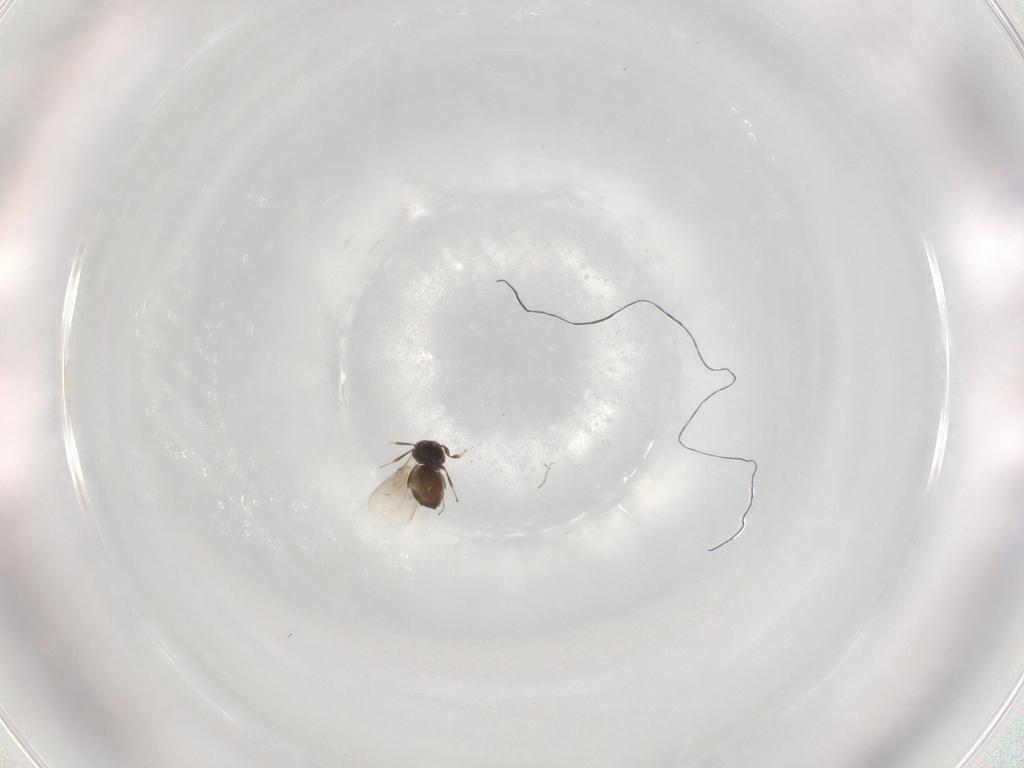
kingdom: Animalia
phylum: Arthropoda
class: Insecta
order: Hymenoptera
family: Scelionidae
